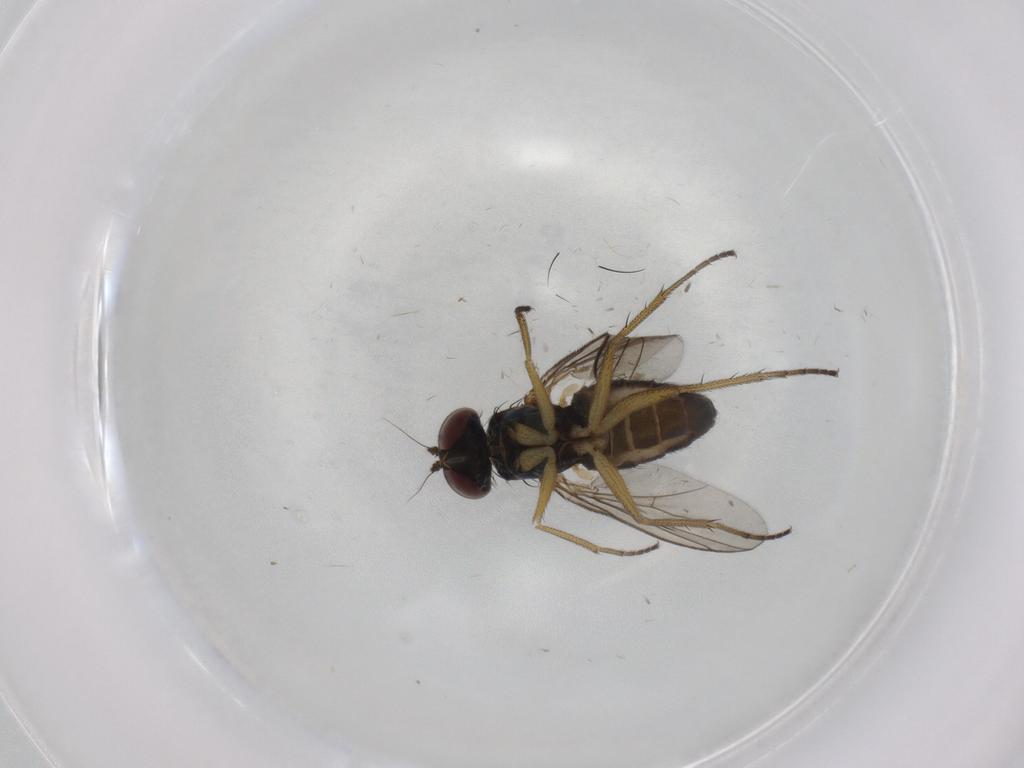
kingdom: Animalia
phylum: Arthropoda
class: Insecta
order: Diptera
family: Dolichopodidae
